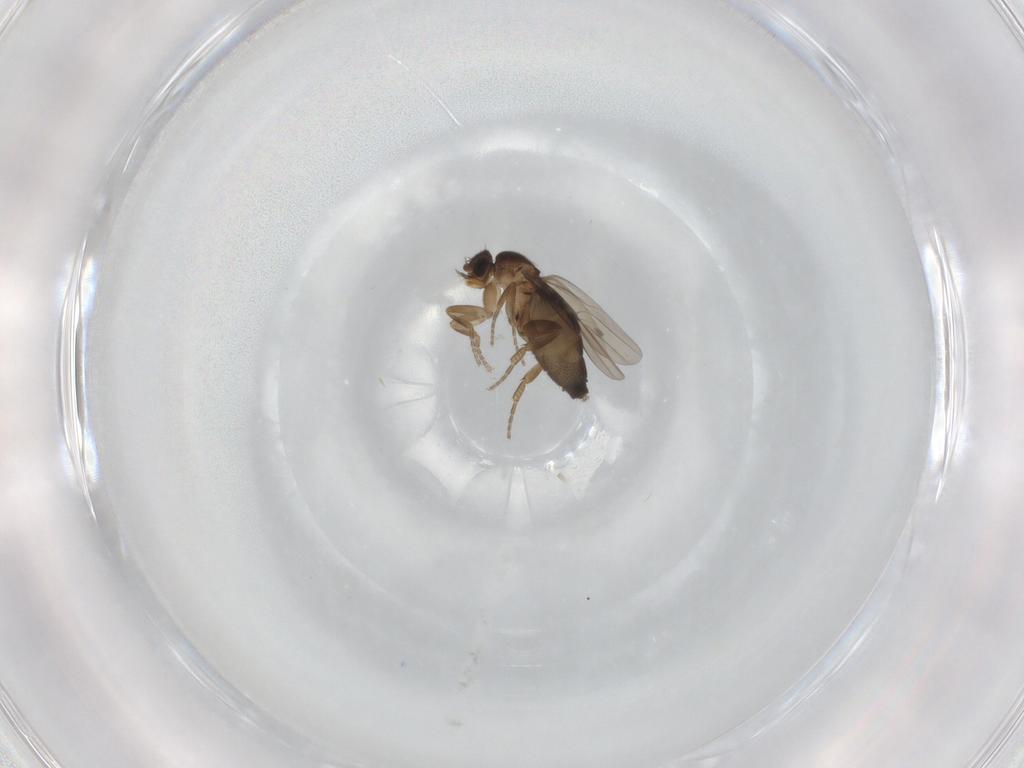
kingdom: Animalia
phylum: Arthropoda
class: Insecta
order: Diptera
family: Phoridae
